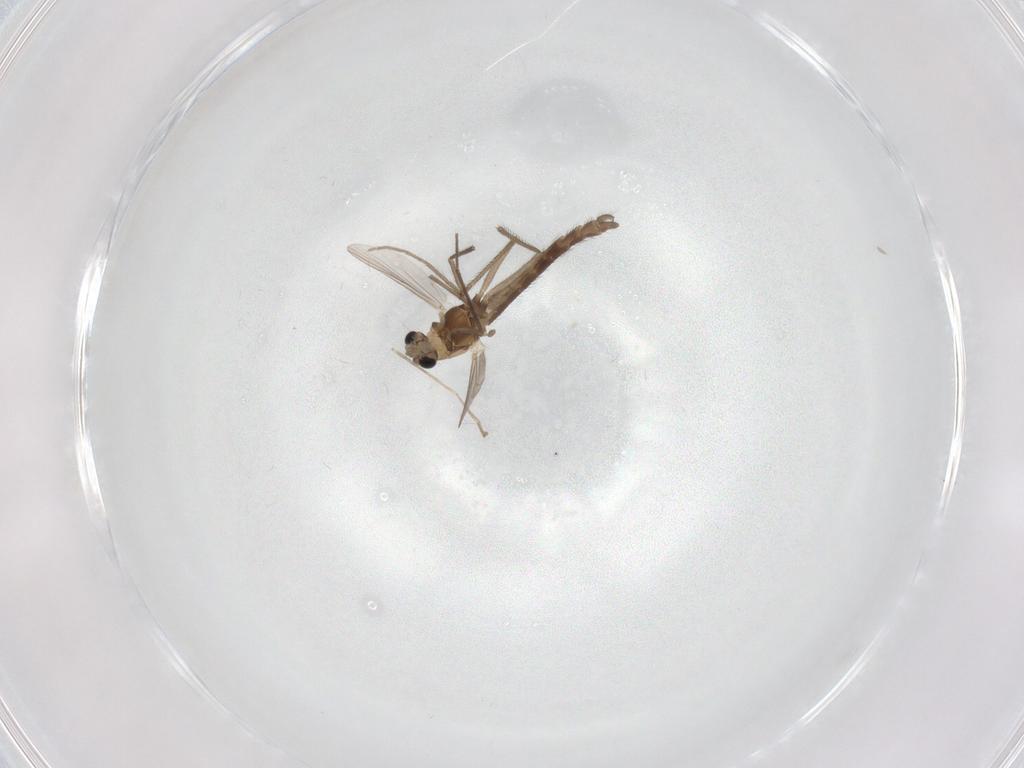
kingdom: Animalia
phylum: Arthropoda
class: Insecta
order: Diptera
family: Chironomidae
